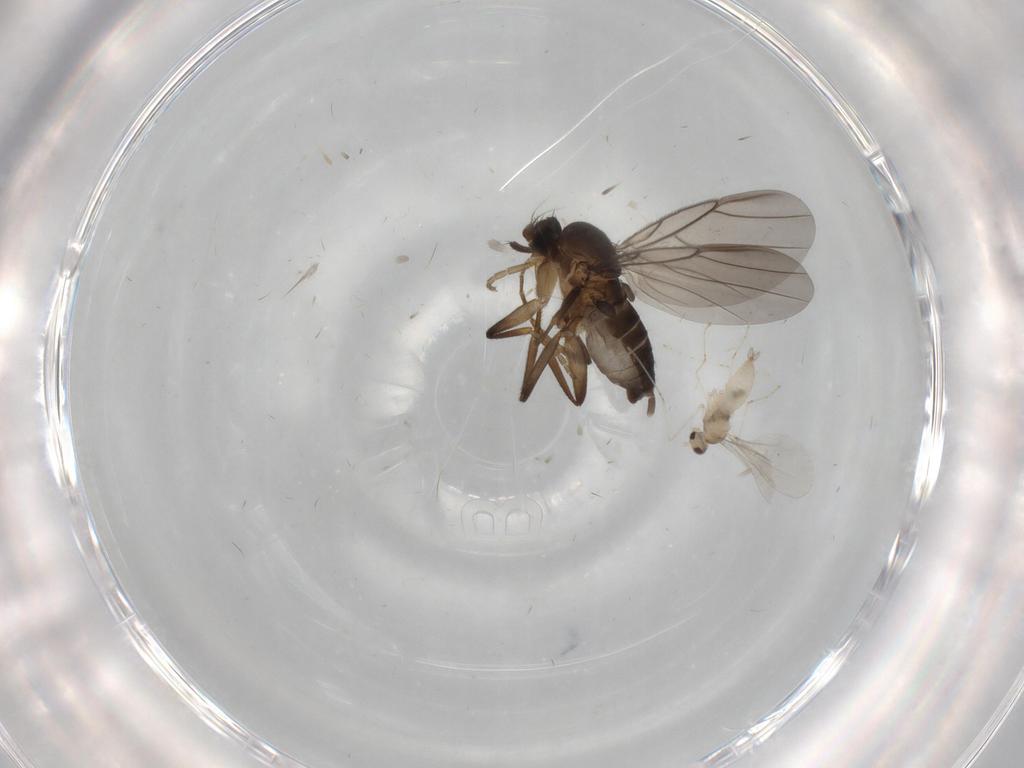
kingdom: Animalia
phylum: Arthropoda
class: Insecta
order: Diptera
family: Phoridae
